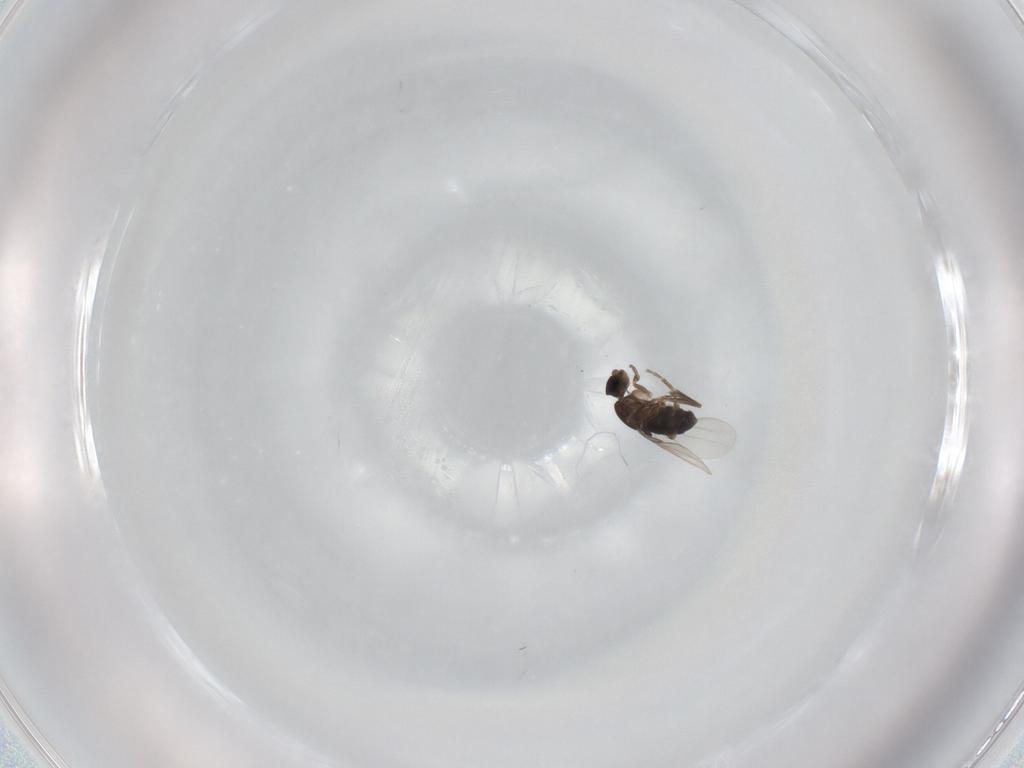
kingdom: Animalia
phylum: Arthropoda
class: Insecta
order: Diptera
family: Phoridae
